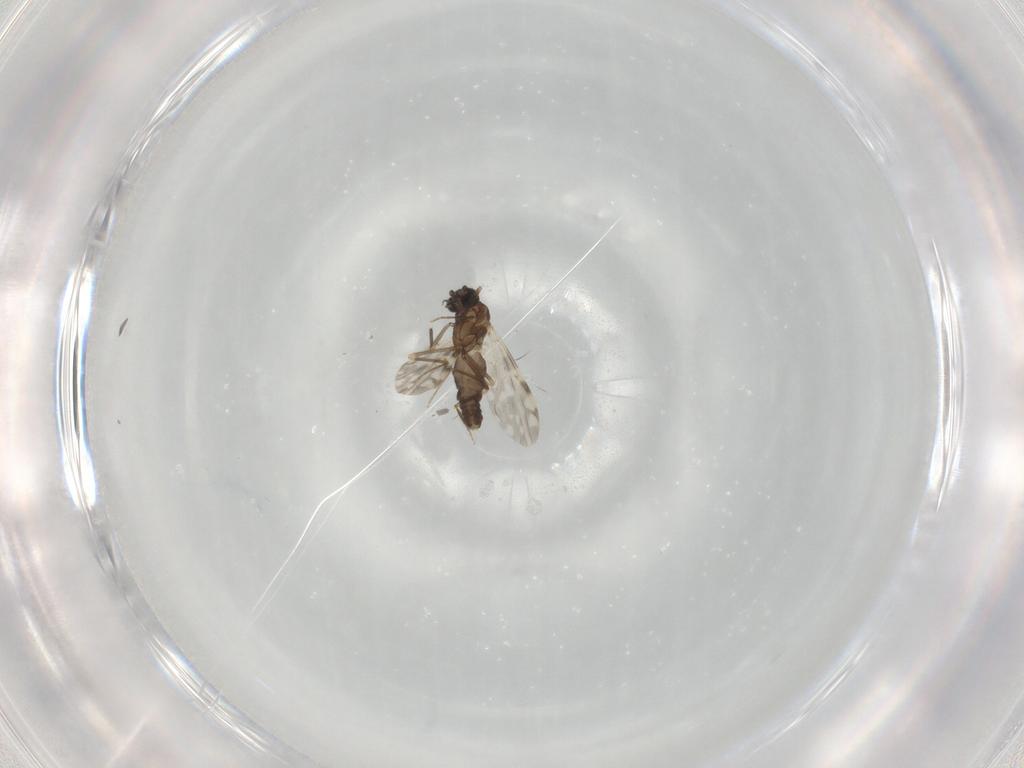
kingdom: Animalia
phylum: Arthropoda
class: Insecta
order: Diptera
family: Ceratopogonidae
